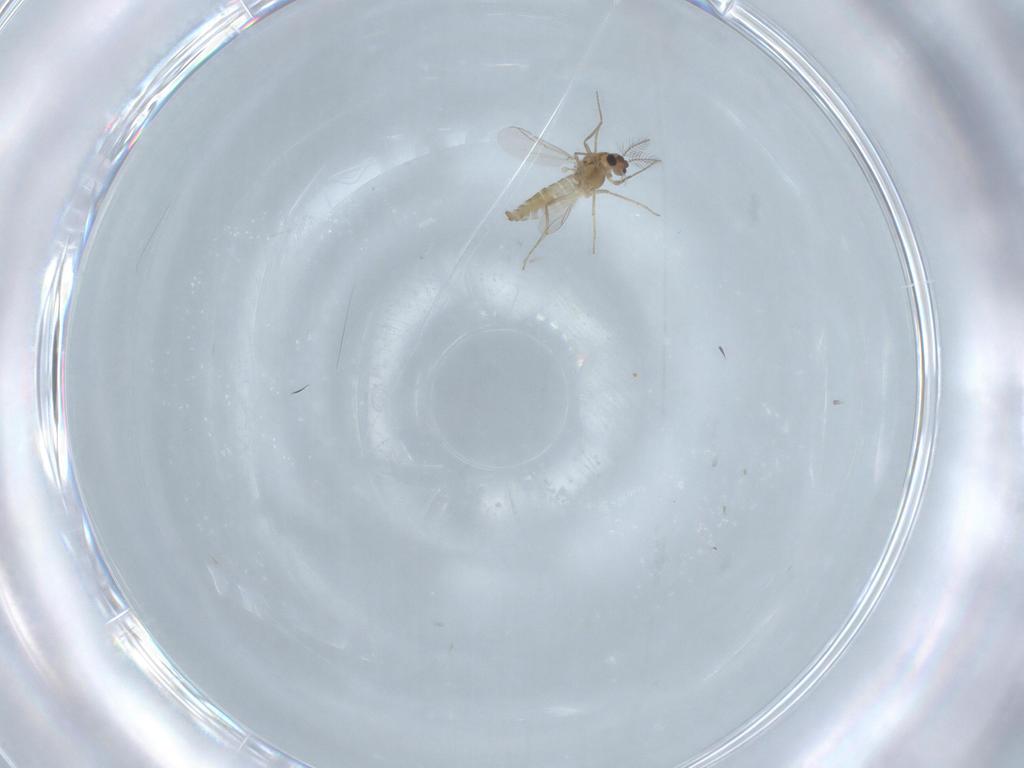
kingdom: Animalia
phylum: Arthropoda
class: Insecta
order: Diptera
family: Chironomidae
